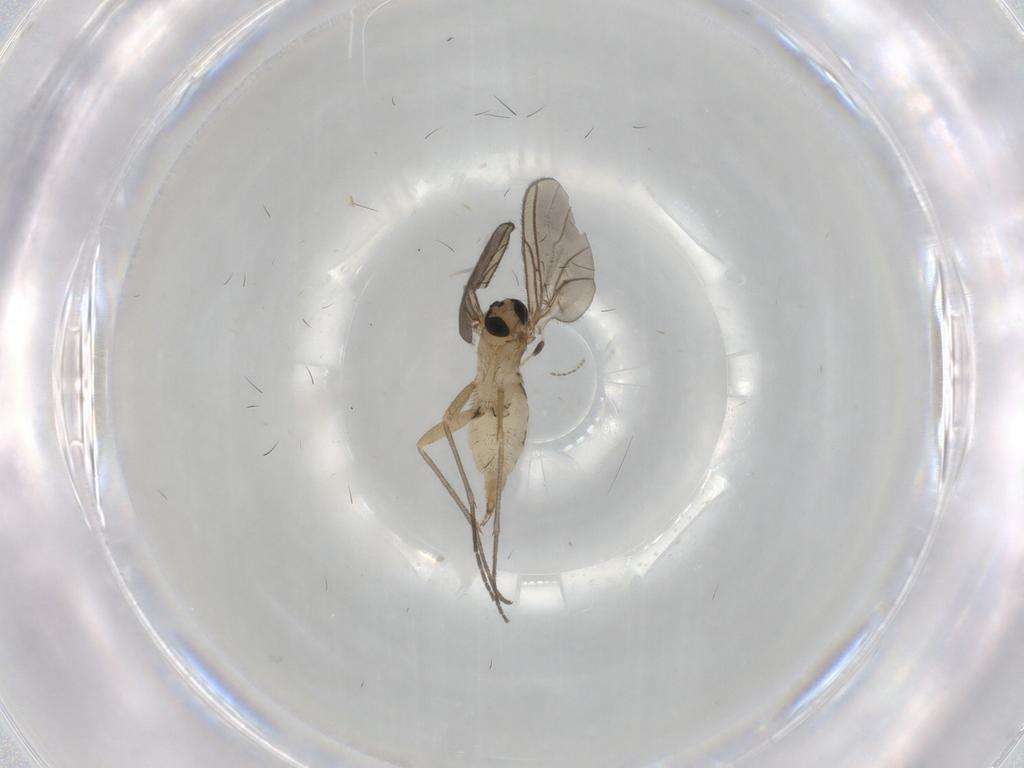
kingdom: Animalia
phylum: Arthropoda
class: Insecta
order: Diptera
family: Sciaridae
